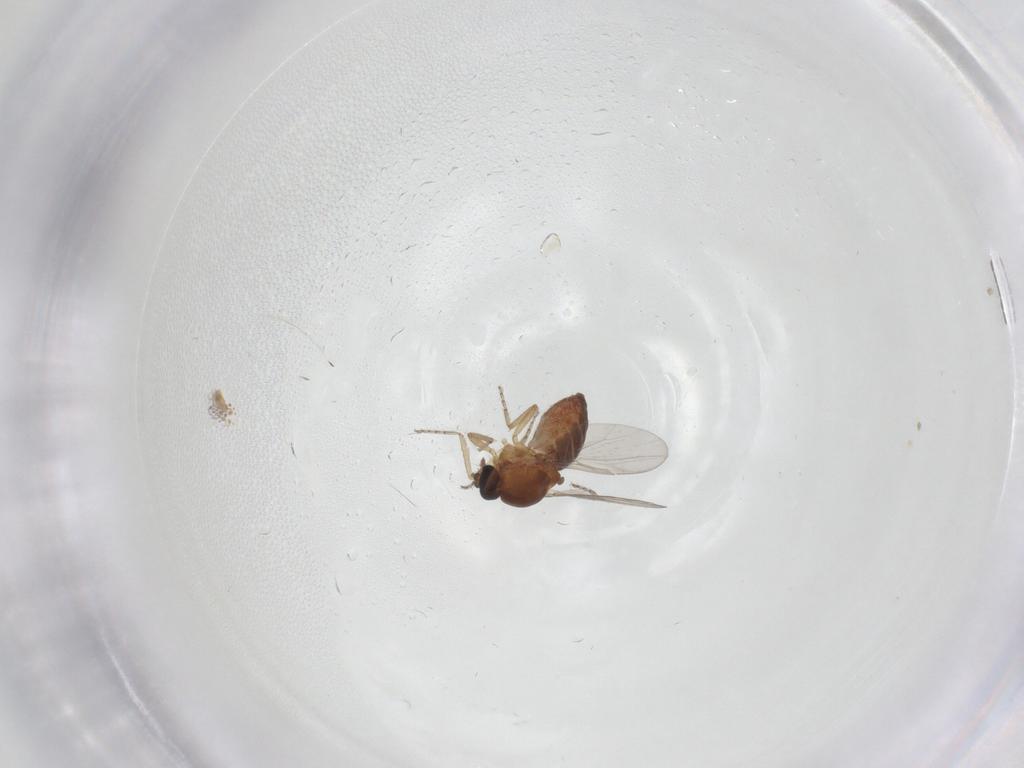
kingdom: Animalia
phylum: Arthropoda
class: Insecta
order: Diptera
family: Ceratopogonidae
